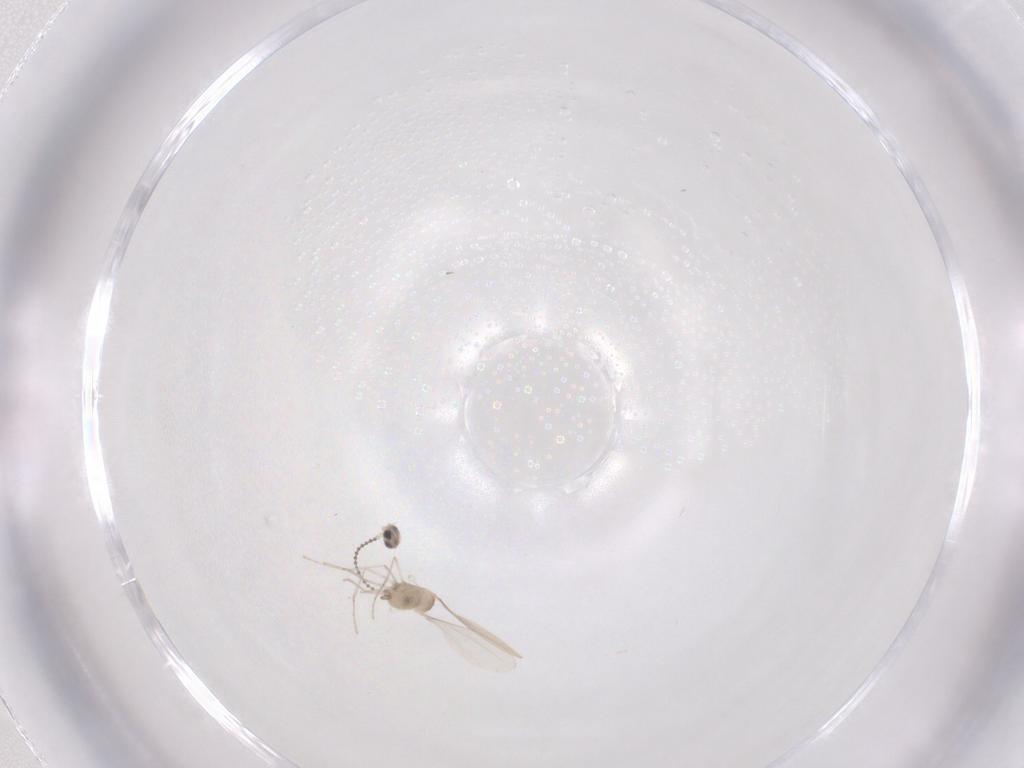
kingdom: Animalia
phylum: Arthropoda
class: Insecta
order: Diptera
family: Cecidomyiidae
